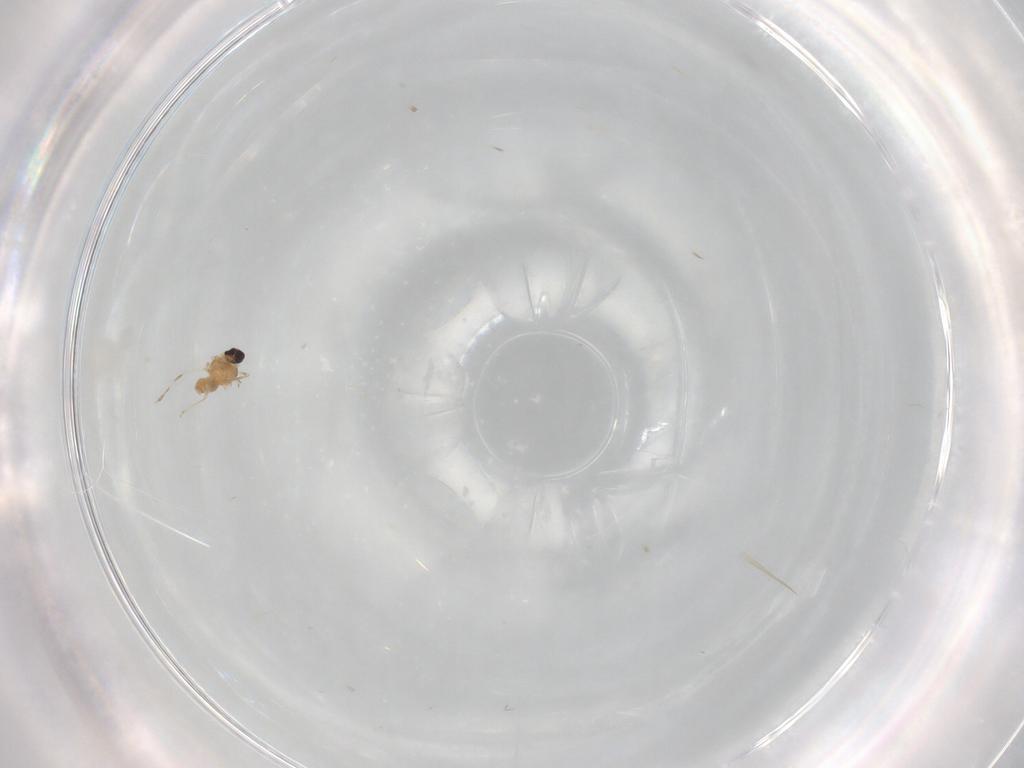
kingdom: Animalia
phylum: Arthropoda
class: Insecta
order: Diptera
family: Cecidomyiidae
